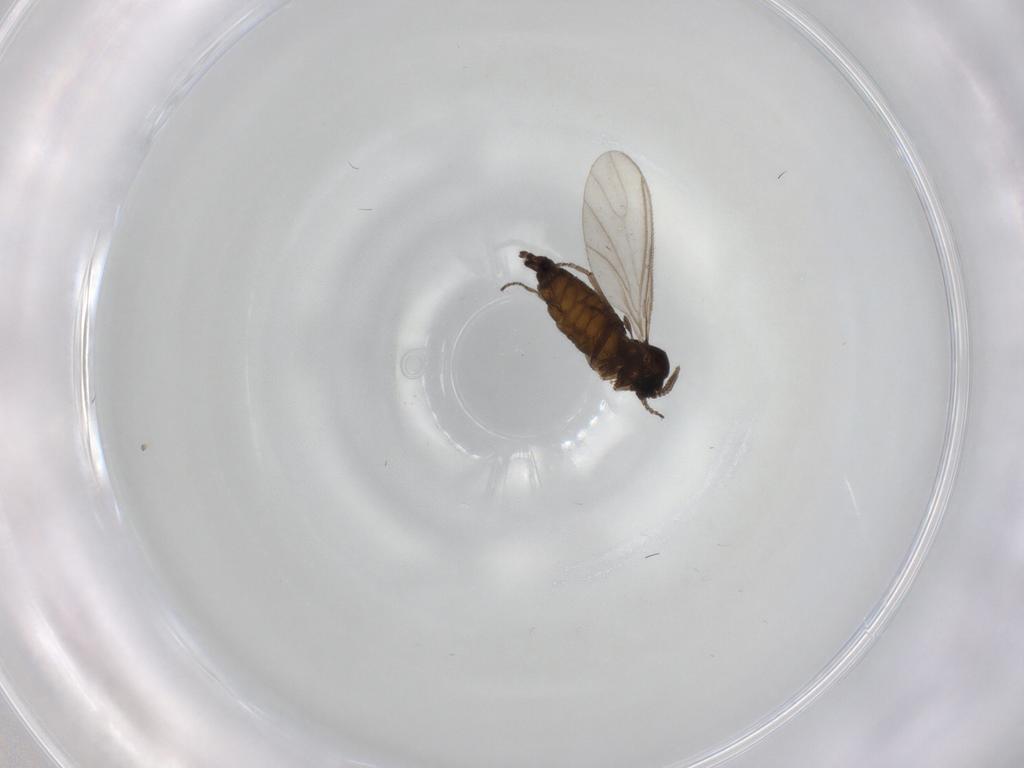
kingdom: Animalia
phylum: Arthropoda
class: Insecta
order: Diptera
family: Sciaridae
